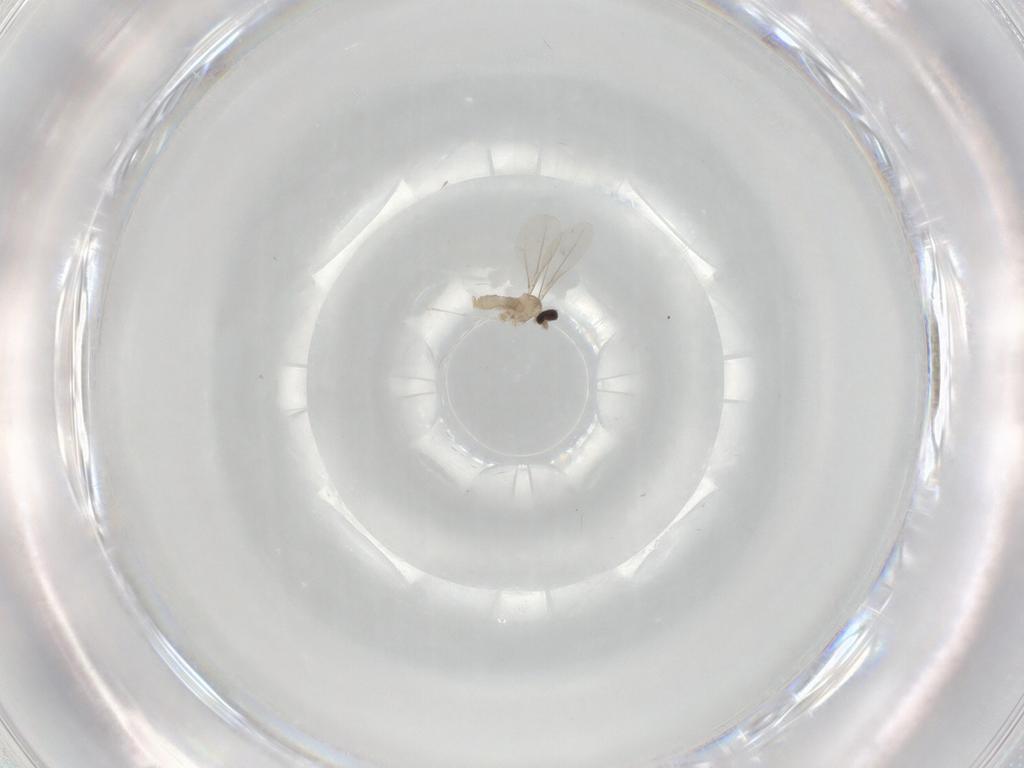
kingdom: Animalia
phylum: Arthropoda
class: Insecta
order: Diptera
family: Cecidomyiidae
